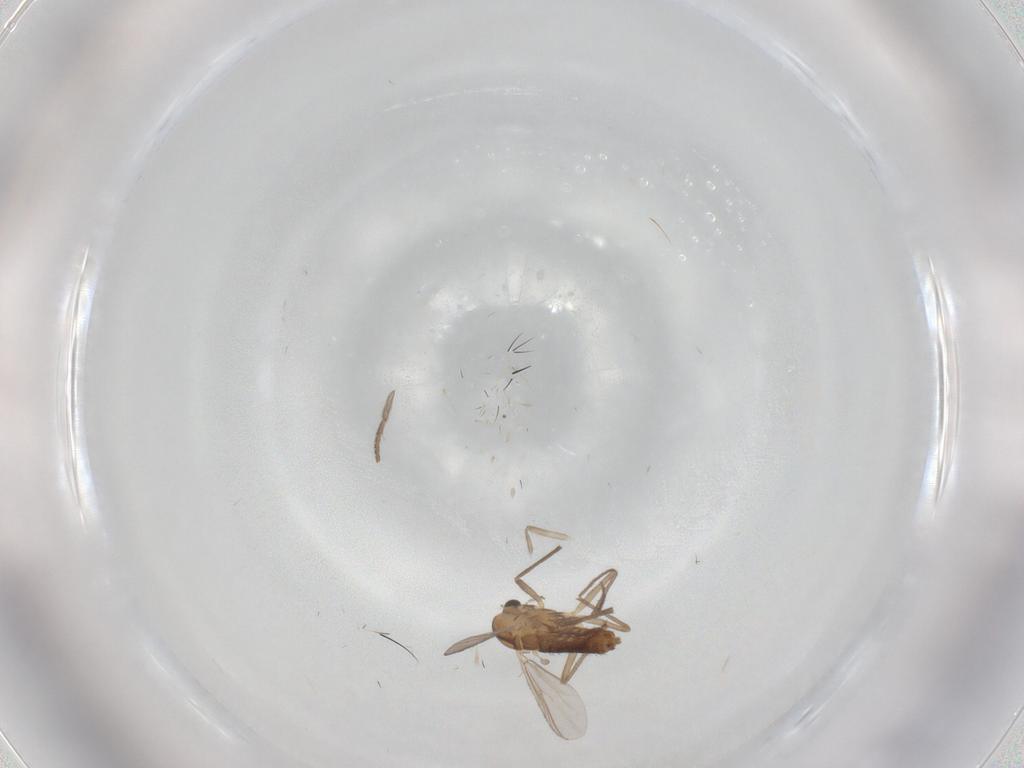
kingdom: Animalia
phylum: Arthropoda
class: Insecta
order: Diptera
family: Chironomidae
